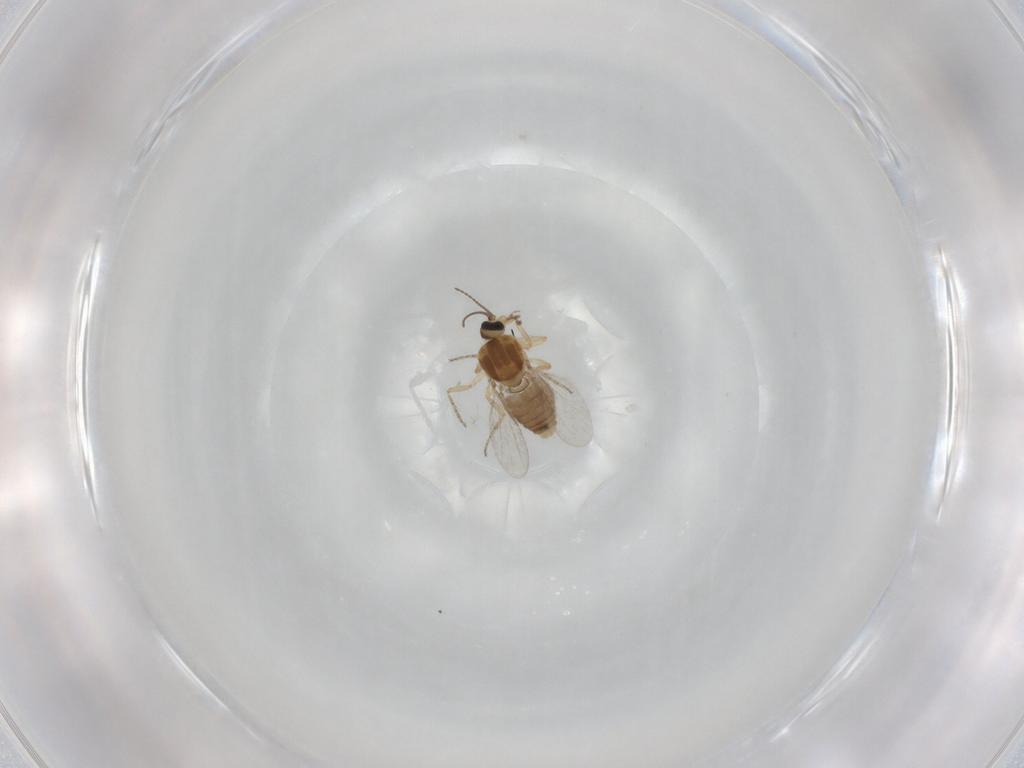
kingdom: Animalia
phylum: Arthropoda
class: Insecta
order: Diptera
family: Ceratopogonidae
